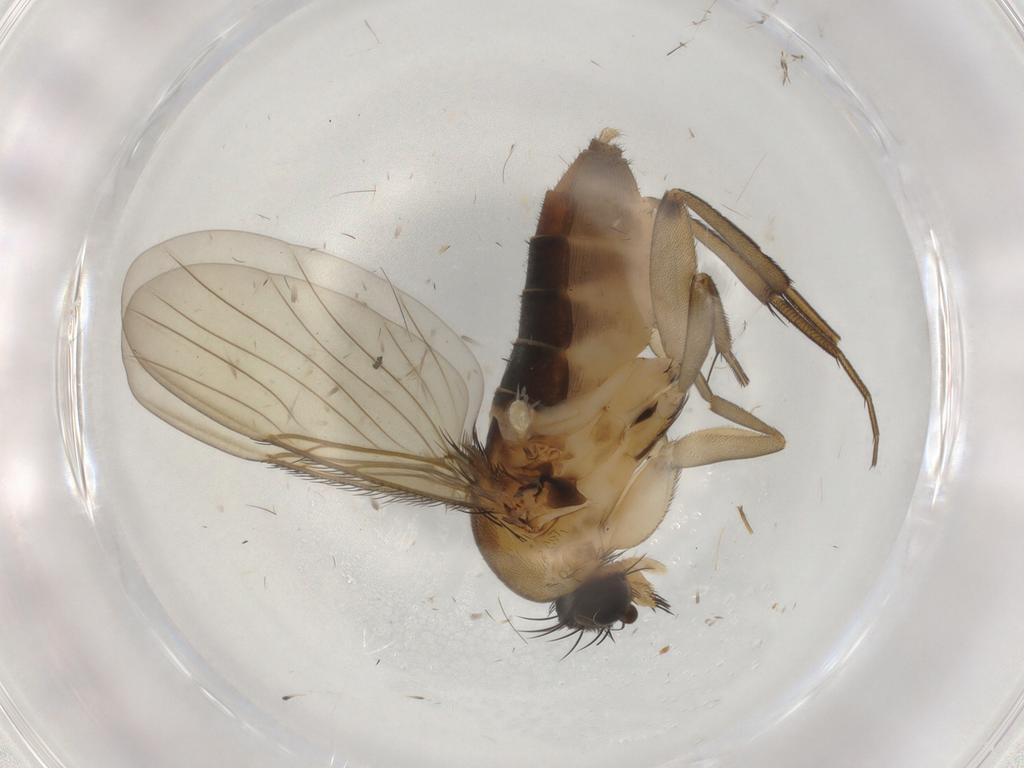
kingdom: Animalia
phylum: Arthropoda
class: Insecta
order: Diptera
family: Phoridae
